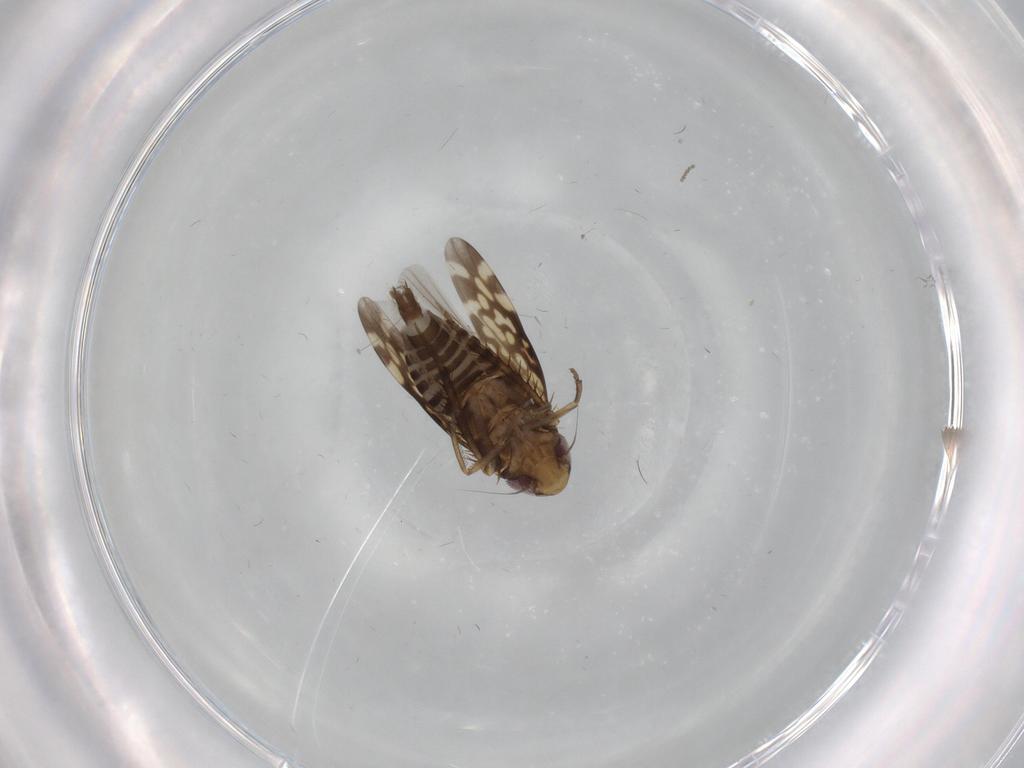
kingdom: Animalia
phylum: Arthropoda
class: Insecta
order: Hemiptera
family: Cicadellidae
